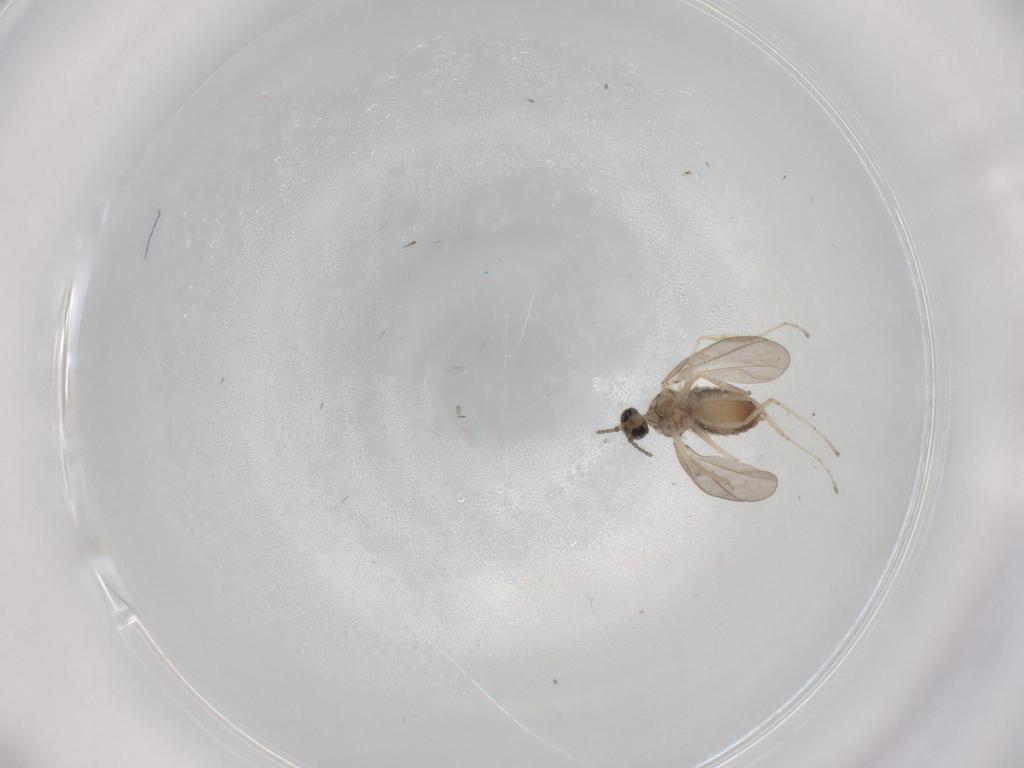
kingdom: Animalia
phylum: Arthropoda
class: Insecta
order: Diptera
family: Cecidomyiidae
